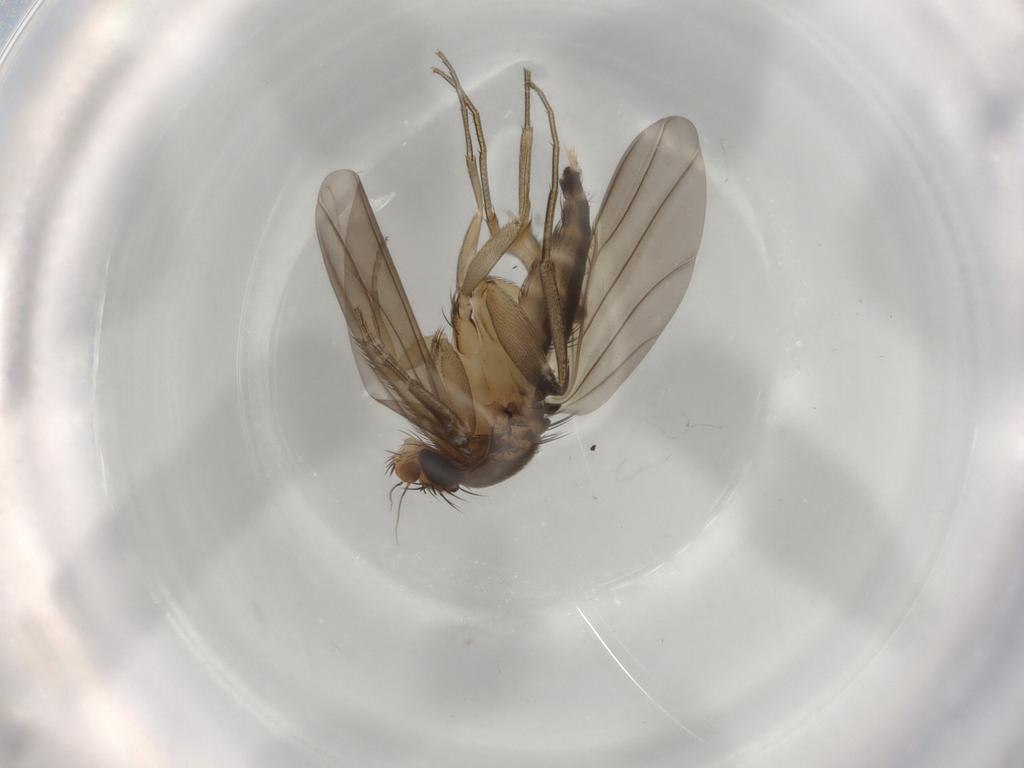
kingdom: Animalia
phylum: Arthropoda
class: Insecta
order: Diptera
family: Phoridae
